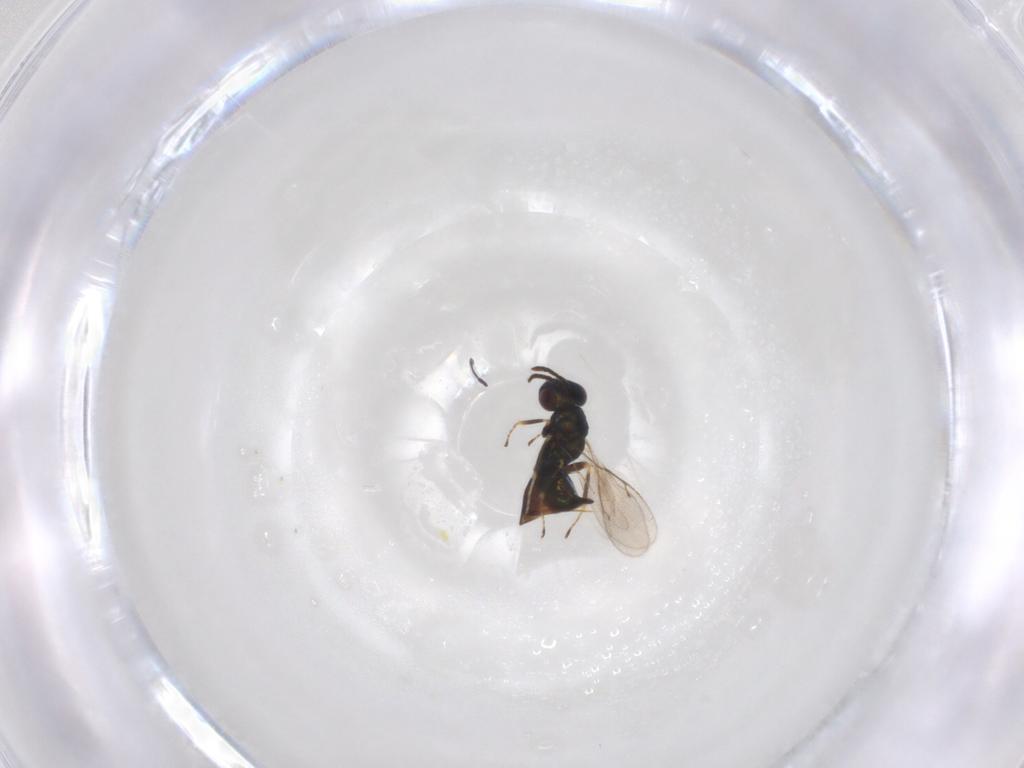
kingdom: Animalia
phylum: Arthropoda
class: Insecta
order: Hymenoptera
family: Pteromalidae
